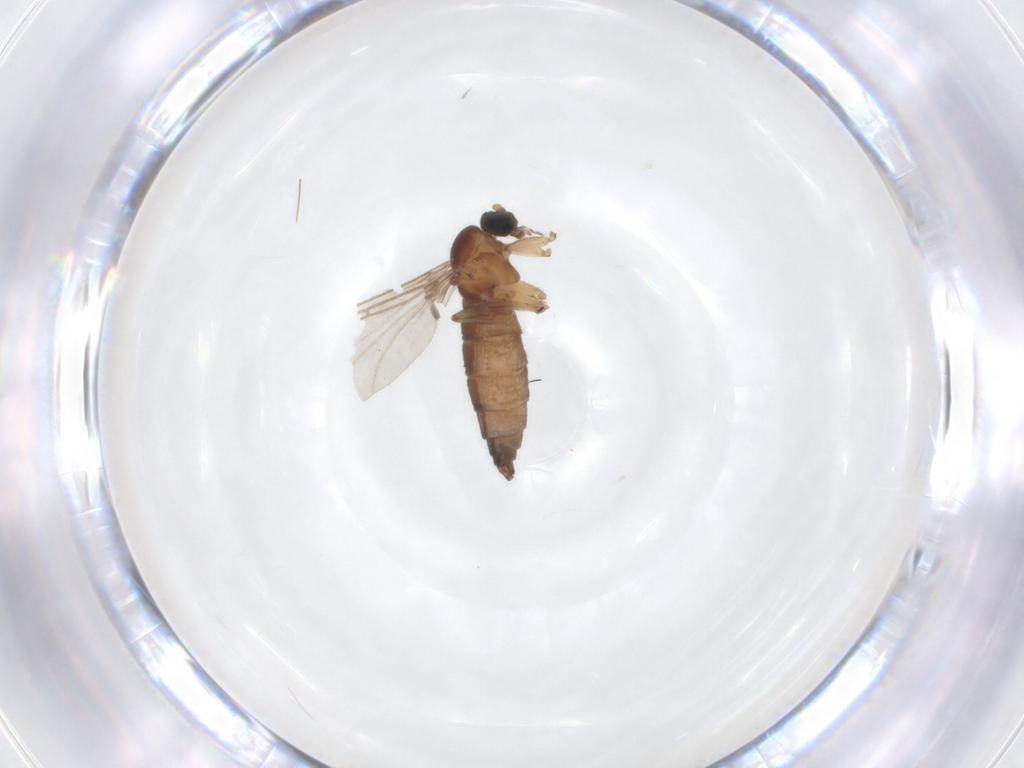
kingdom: Animalia
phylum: Arthropoda
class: Insecta
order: Diptera
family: Sciaridae
